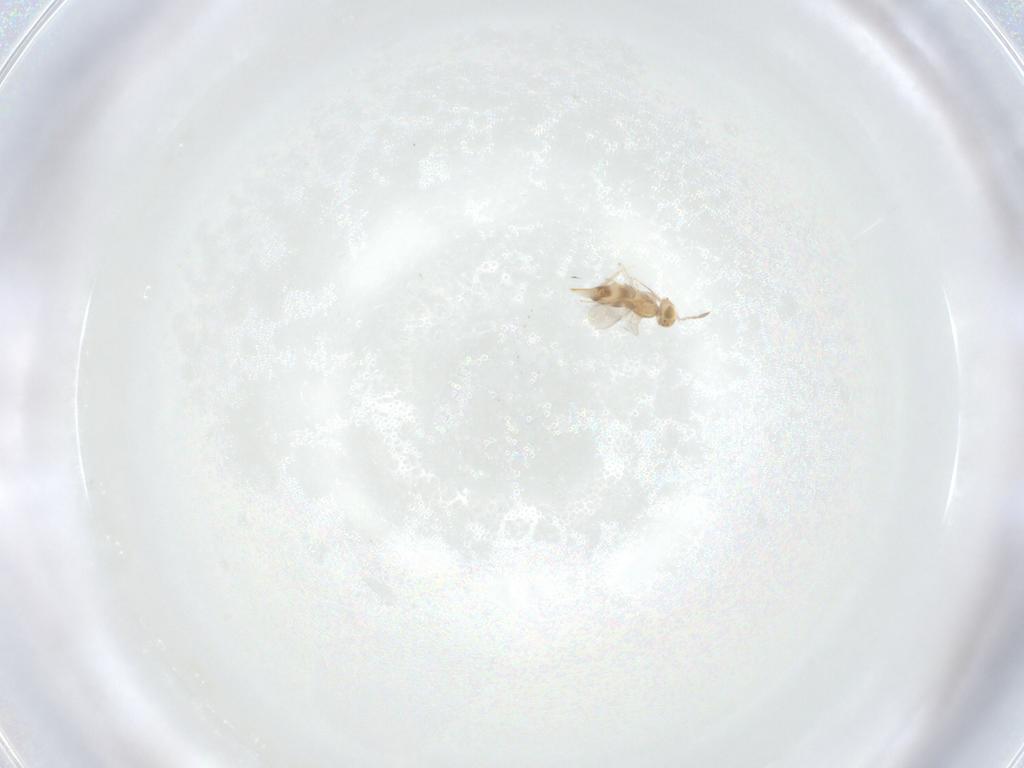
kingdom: Animalia
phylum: Arthropoda
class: Insecta
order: Hymenoptera
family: Aphelinidae
